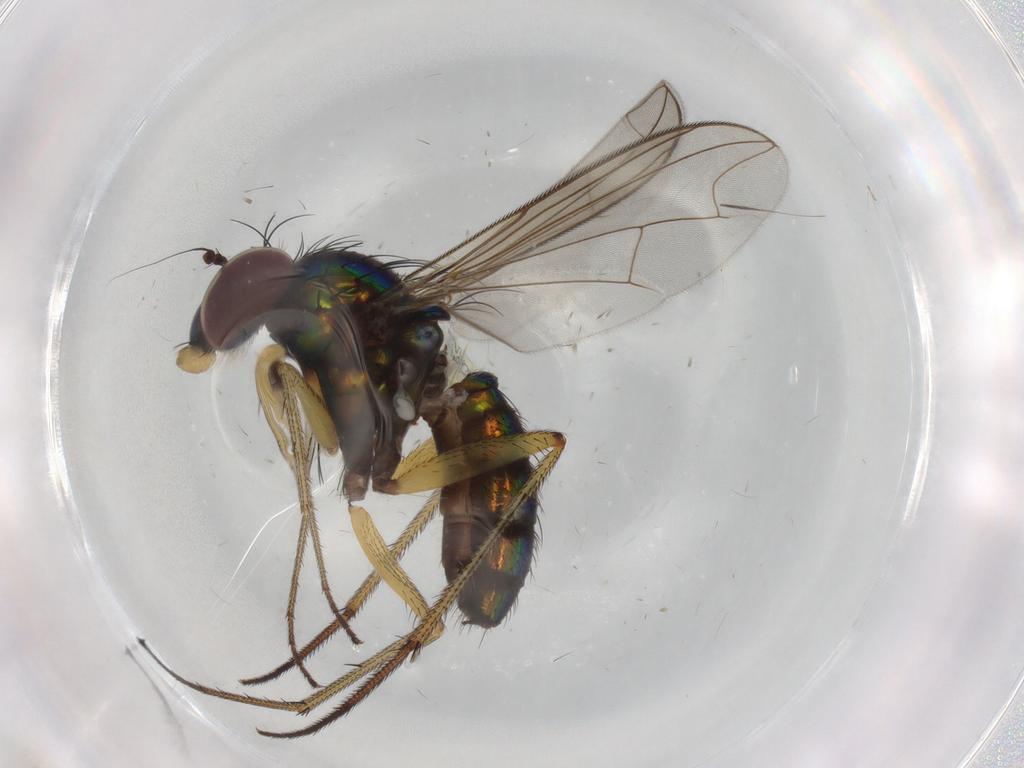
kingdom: Animalia
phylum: Arthropoda
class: Insecta
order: Diptera
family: Dolichopodidae
